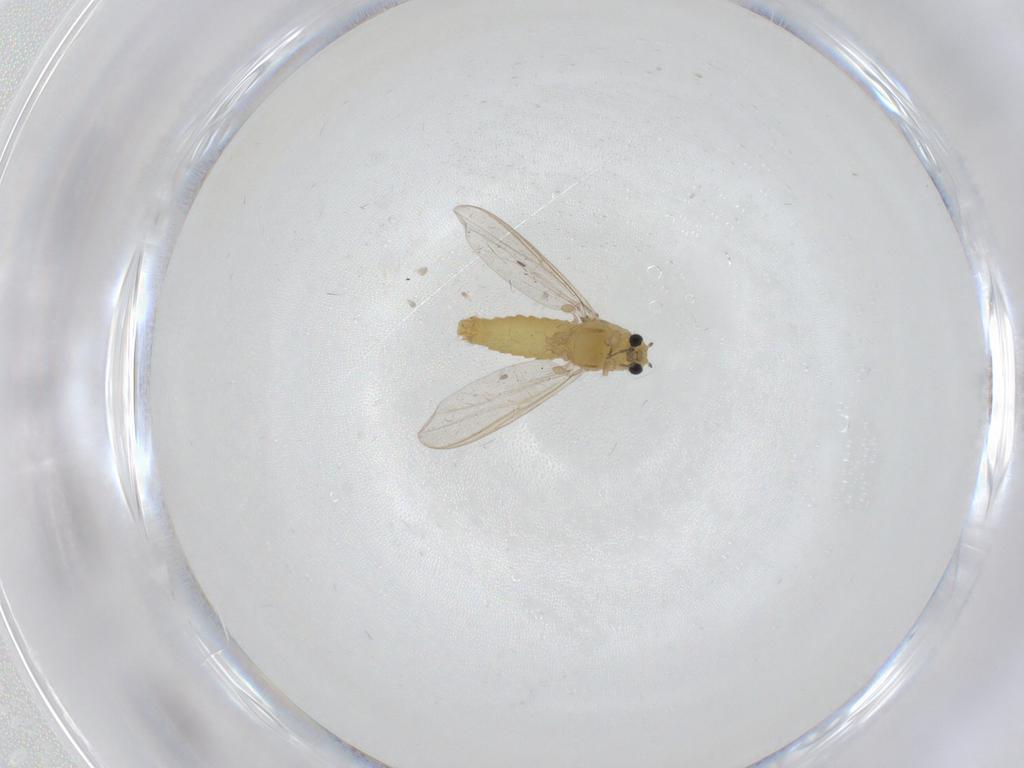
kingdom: Animalia
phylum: Arthropoda
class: Insecta
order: Diptera
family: Chironomidae
